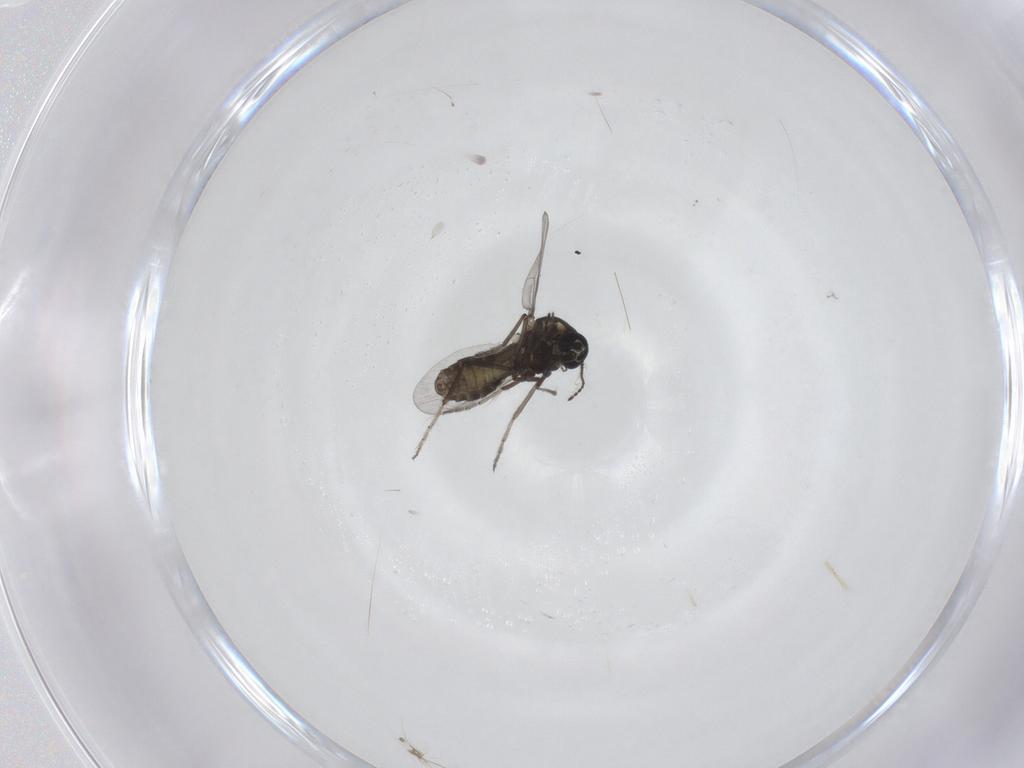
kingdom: Animalia
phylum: Arthropoda
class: Insecta
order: Diptera
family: Ceratopogonidae
